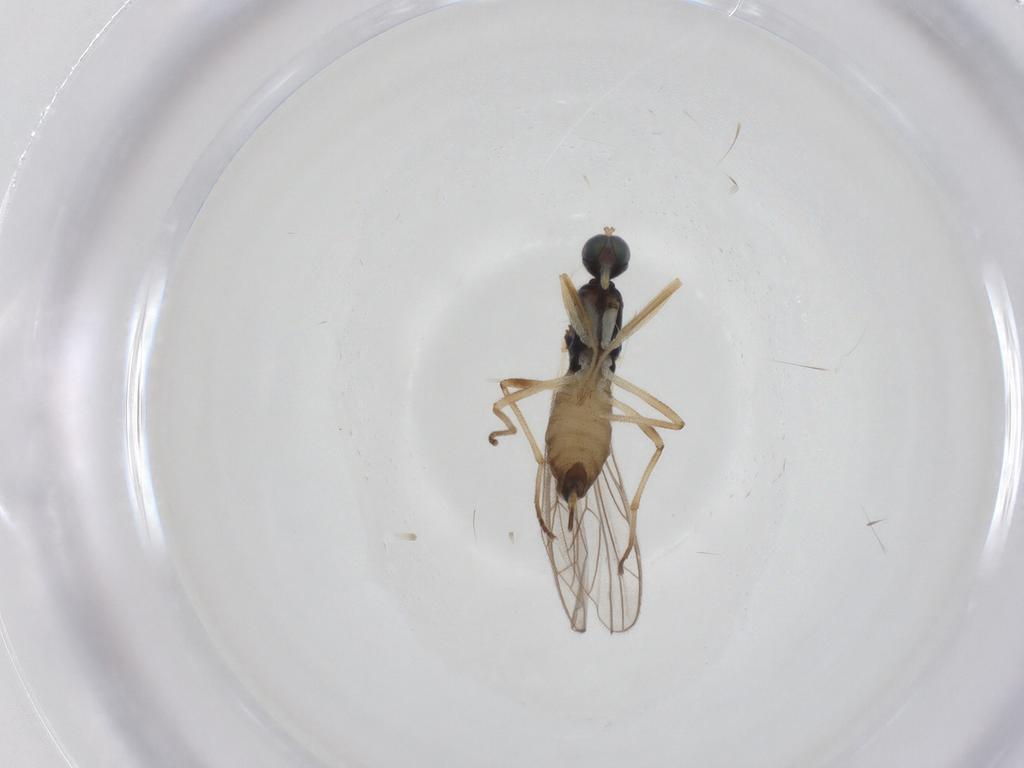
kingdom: Animalia
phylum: Arthropoda
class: Insecta
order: Diptera
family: Empididae
